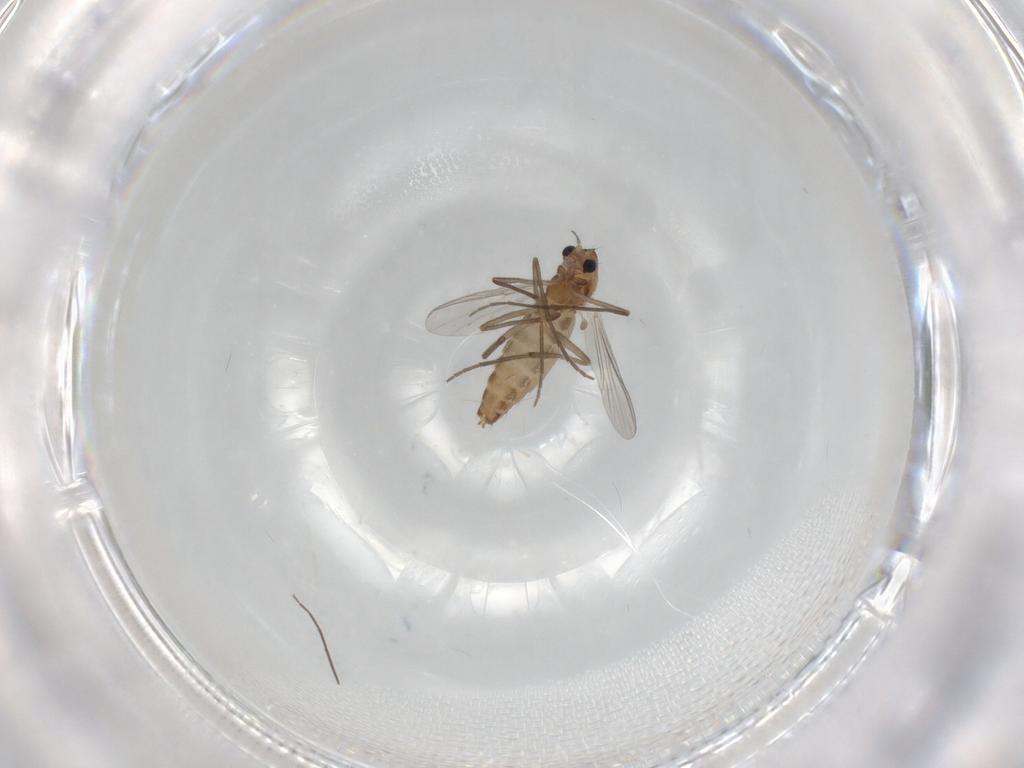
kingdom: Animalia
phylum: Arthropoda
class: Insecta
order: Diptera
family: Chironomidae
